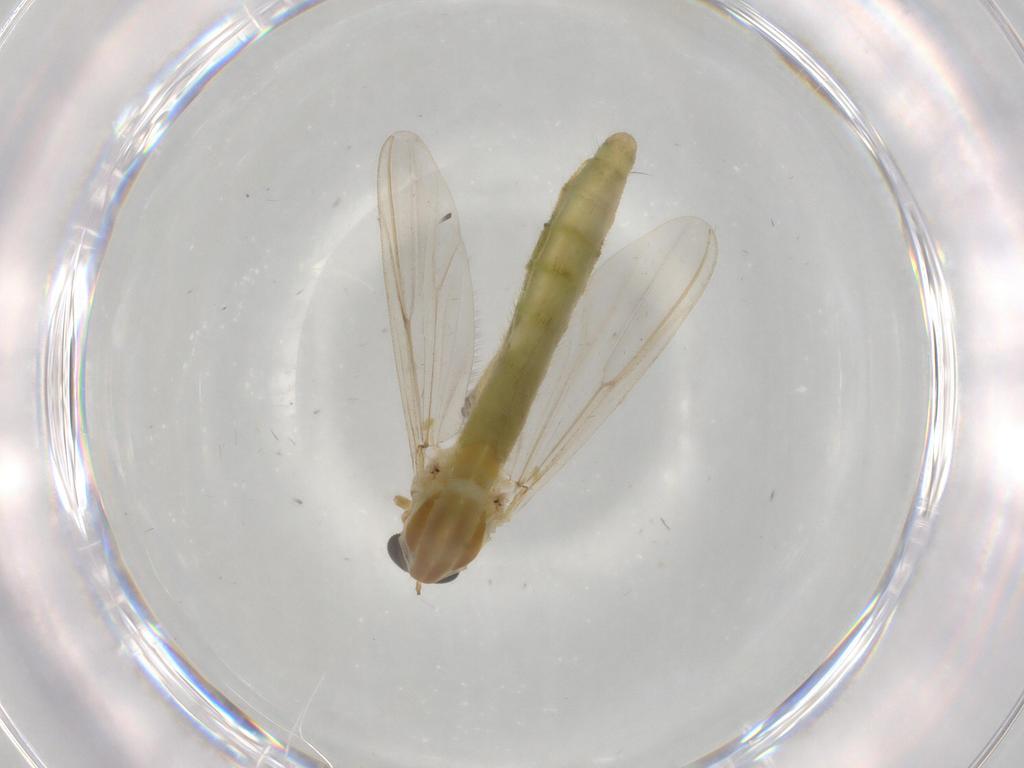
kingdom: Animalia
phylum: Arthropoda
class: Insecta
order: Diptera
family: Chironomidae
